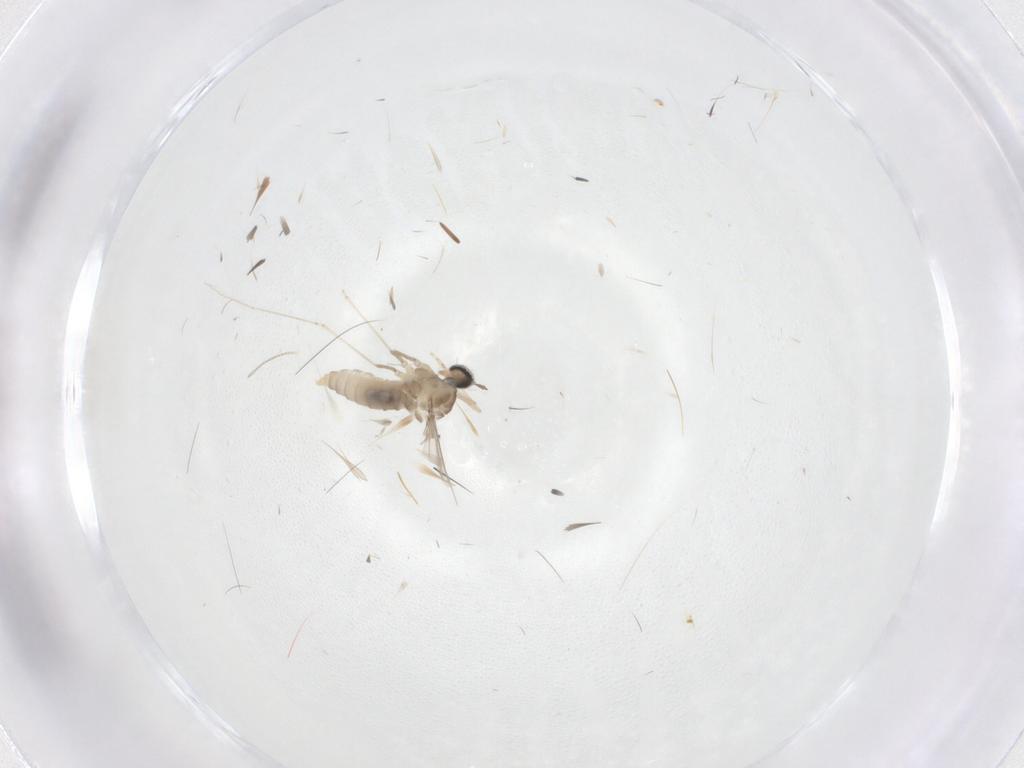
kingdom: Animalia
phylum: Arthropoda
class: Insecta
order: Diptera
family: Cecidomyiidae
